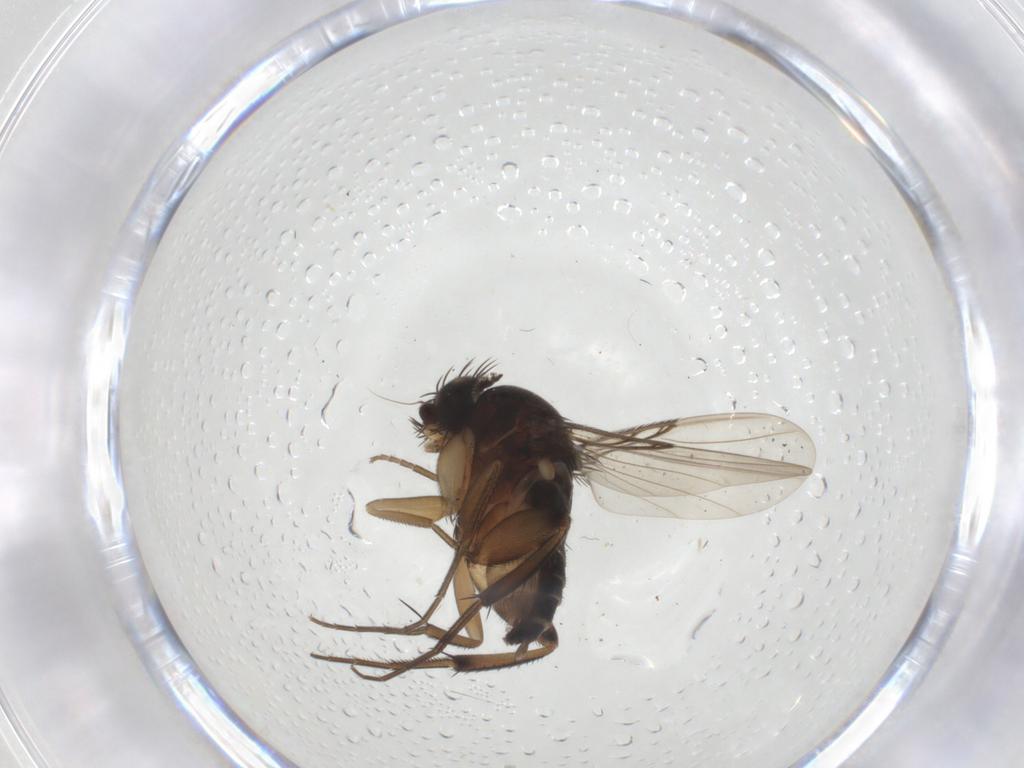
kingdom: Animalia
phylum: Arthropoda
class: Insecta
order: Diptera
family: Phoridae
